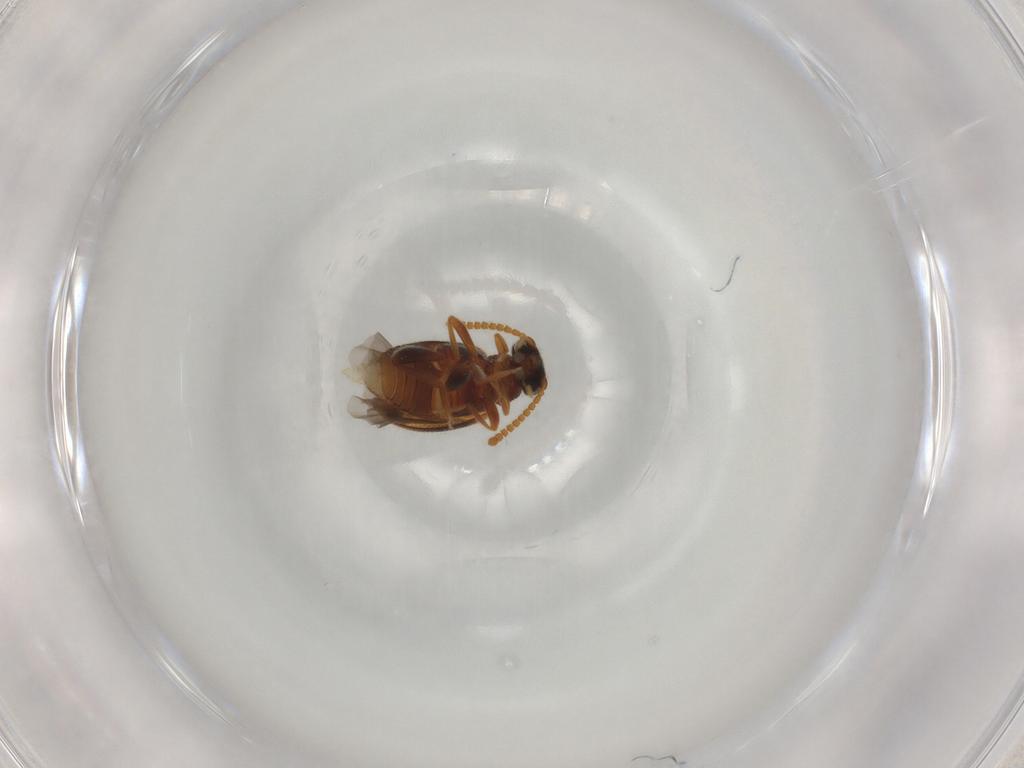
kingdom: Animalia
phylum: Arthropoda
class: Insecta
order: Coleoptera
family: Aderidae
